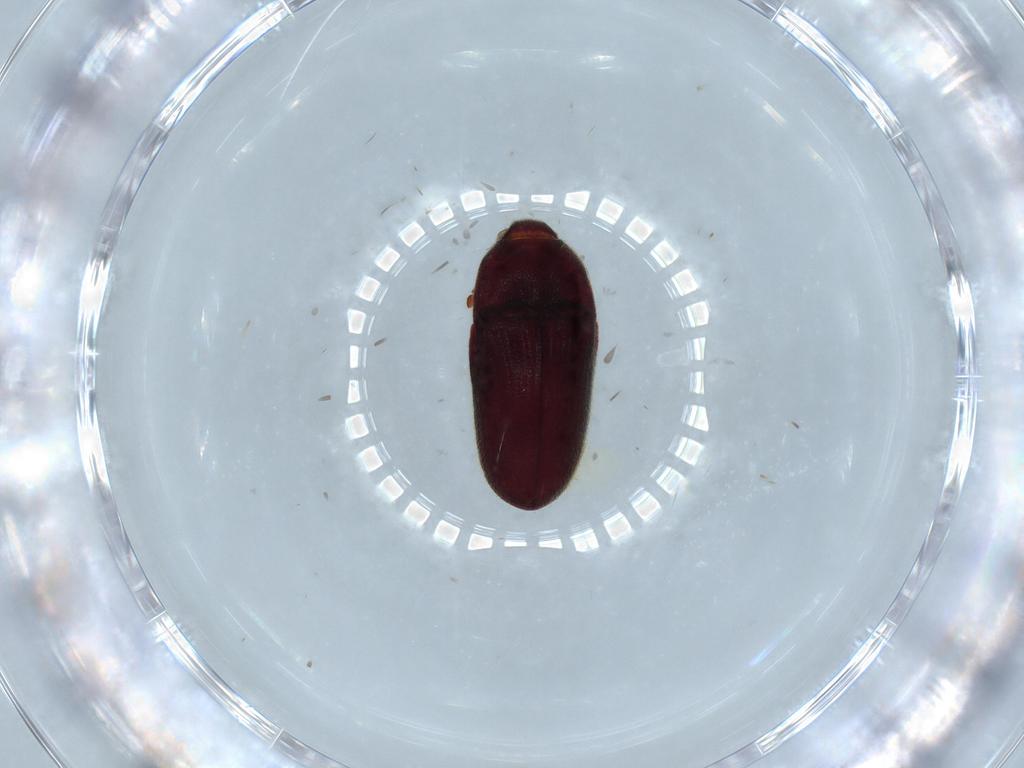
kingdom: Animalia
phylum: Arthropoda
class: Insecta
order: Coleoptera
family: Throscidae
